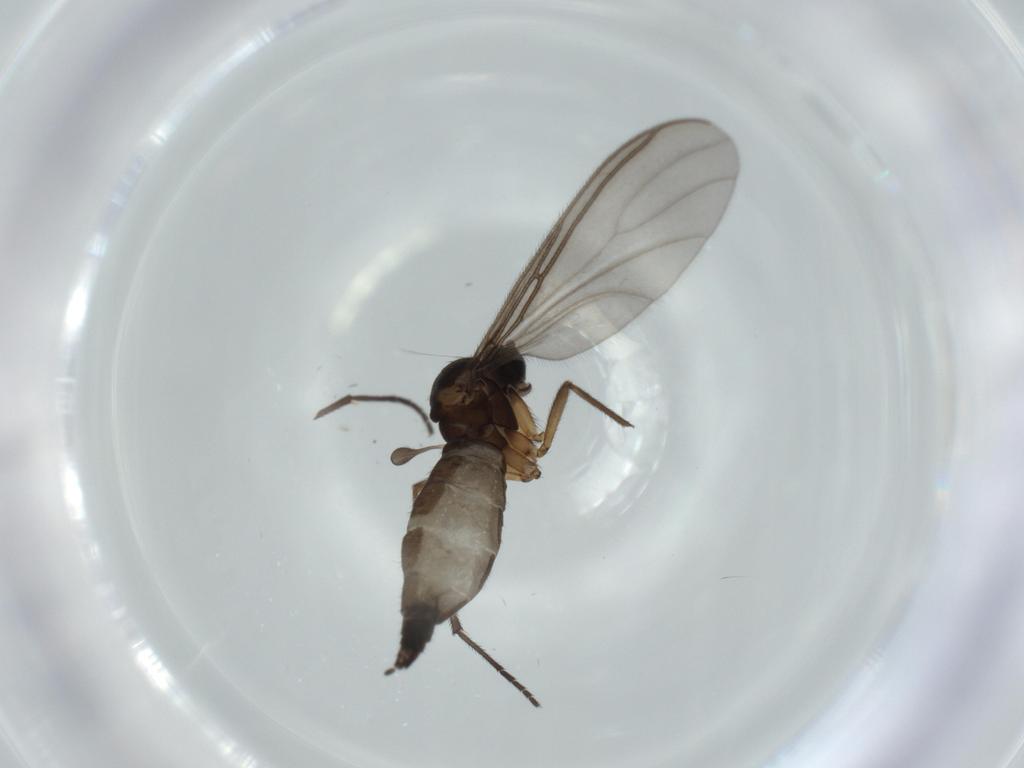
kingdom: Animalia
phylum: Arthropoda
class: Insecta
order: Diptera
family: Sciaridae
